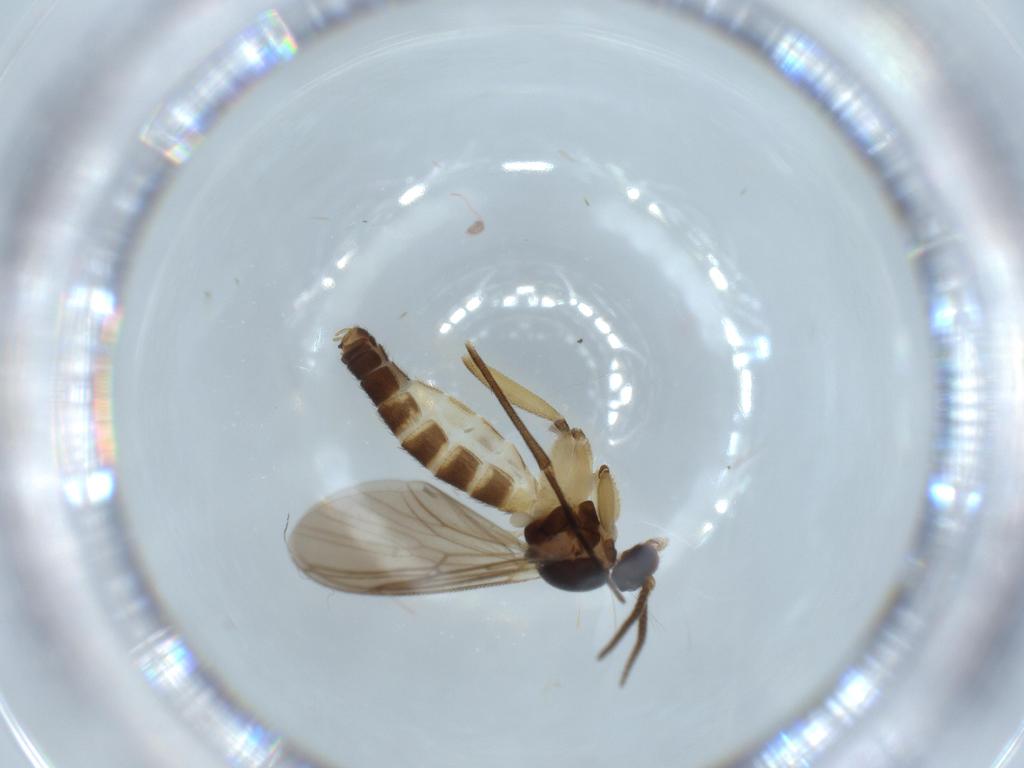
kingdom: Animalia
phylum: Arthropoda
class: Insecta
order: Diptera
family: Mycetophilidae
